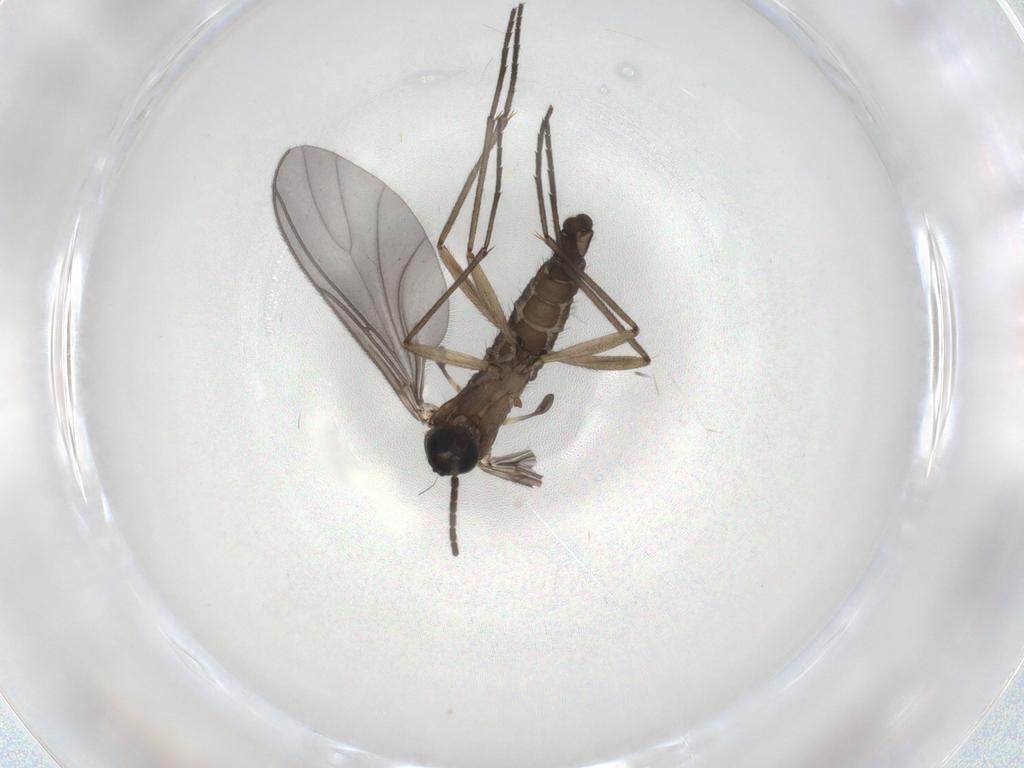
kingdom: Animalia
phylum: Arthropoda
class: Insecta
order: Diptera
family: Sciaridae
